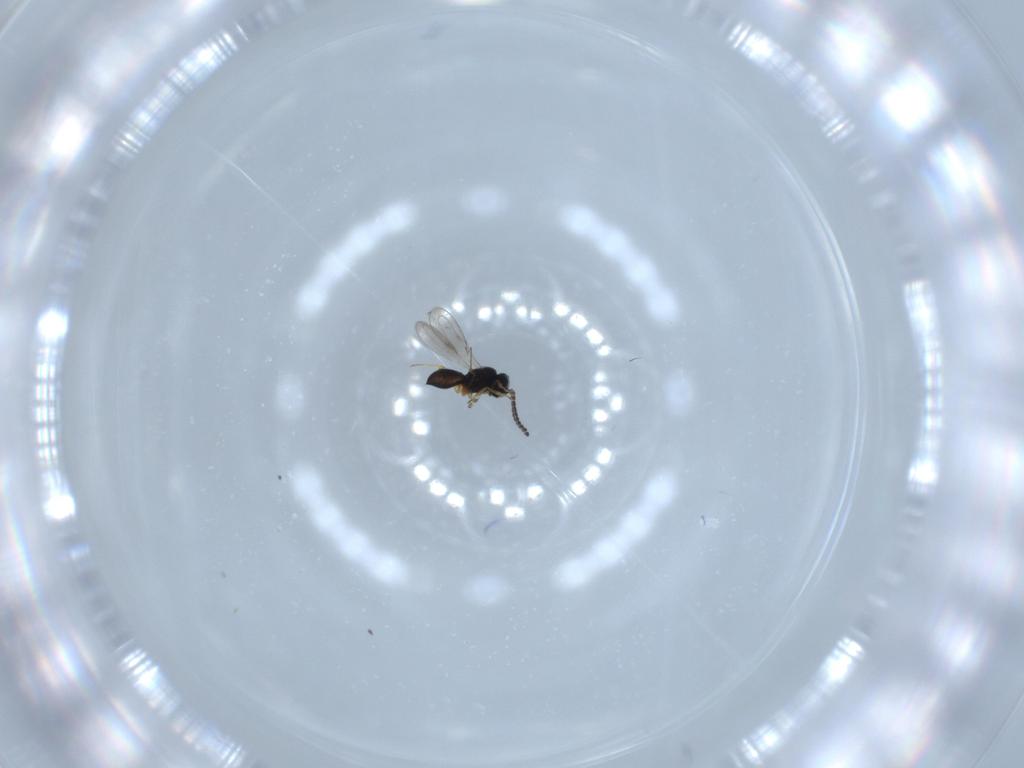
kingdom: Animalia
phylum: Arthropoda
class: Insecta
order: Hymenoptera
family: Scelionidae
